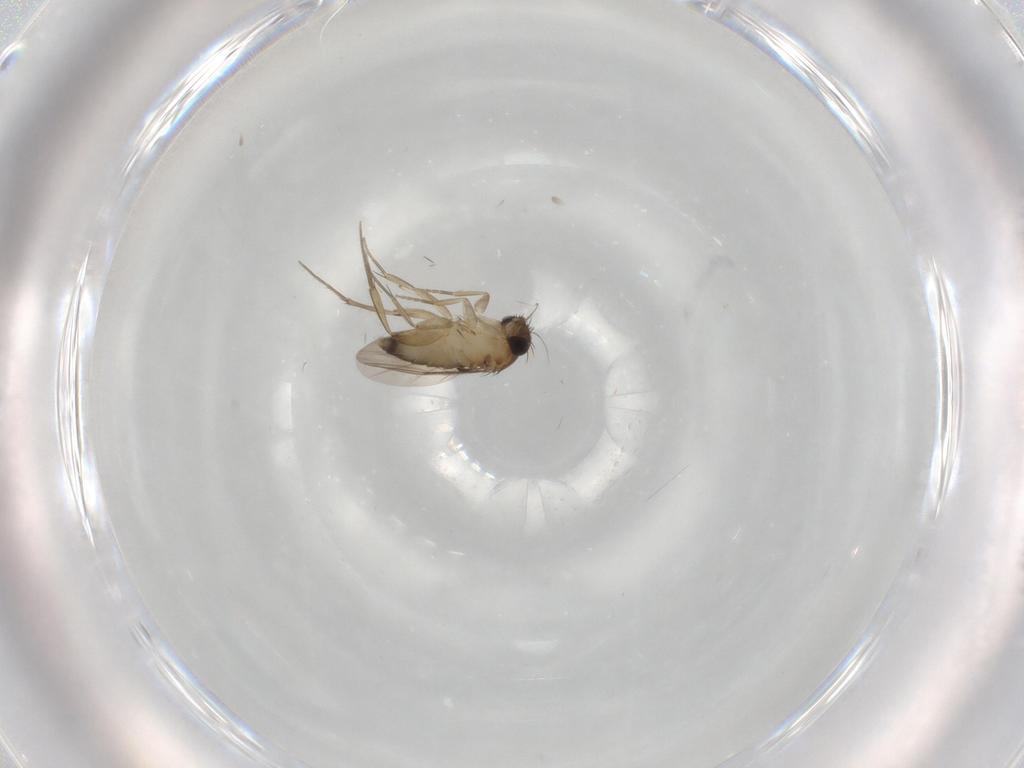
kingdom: Animalia
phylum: Arthropoda
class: Insecta
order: Diptera
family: Phoridae
